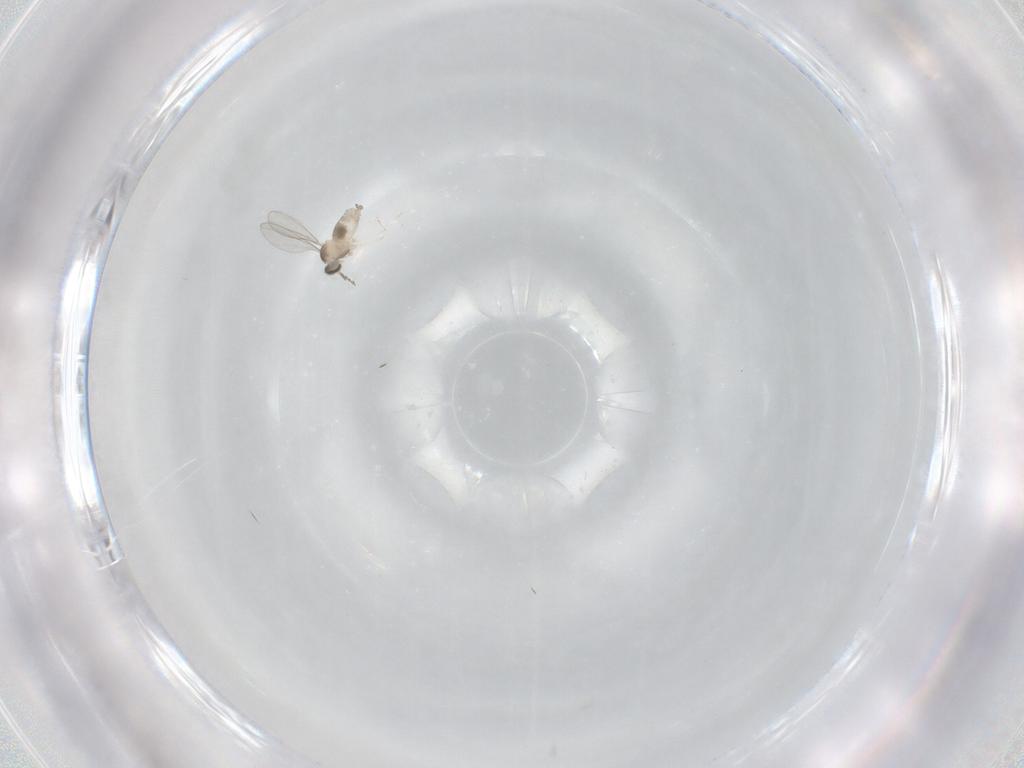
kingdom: Animalia
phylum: Arthropoda
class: Insecta
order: Diptera
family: Cecidomyiidae
